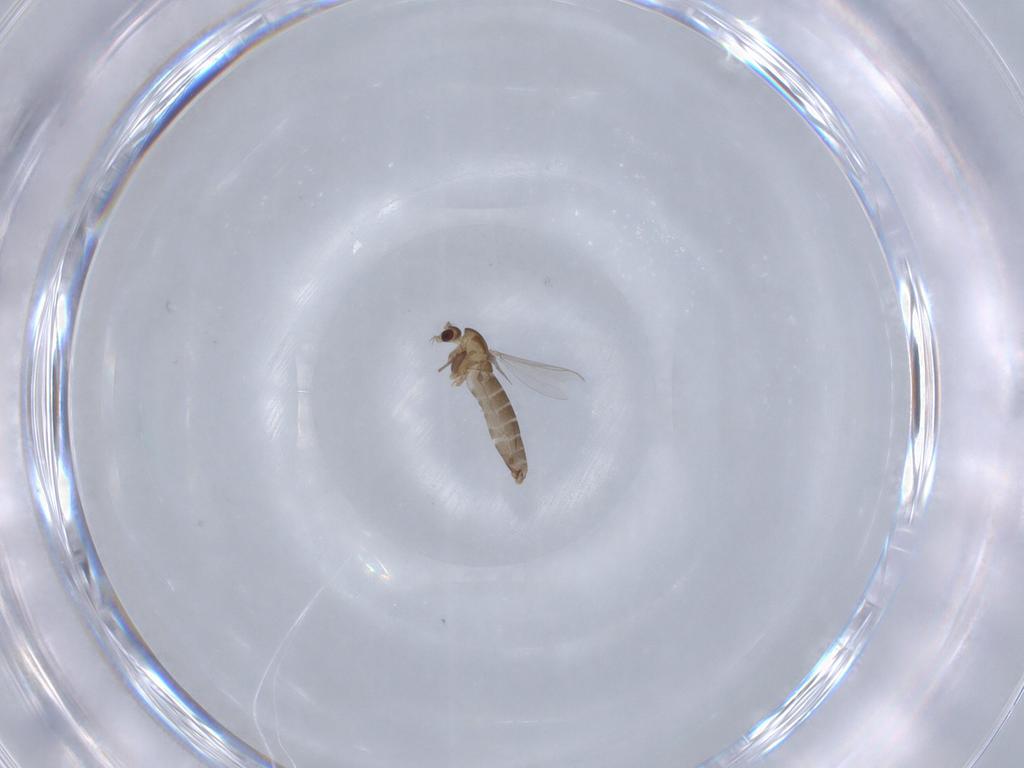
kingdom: Animalia
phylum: Arthropoda
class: Insecta
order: Diptera
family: Chironomidae
